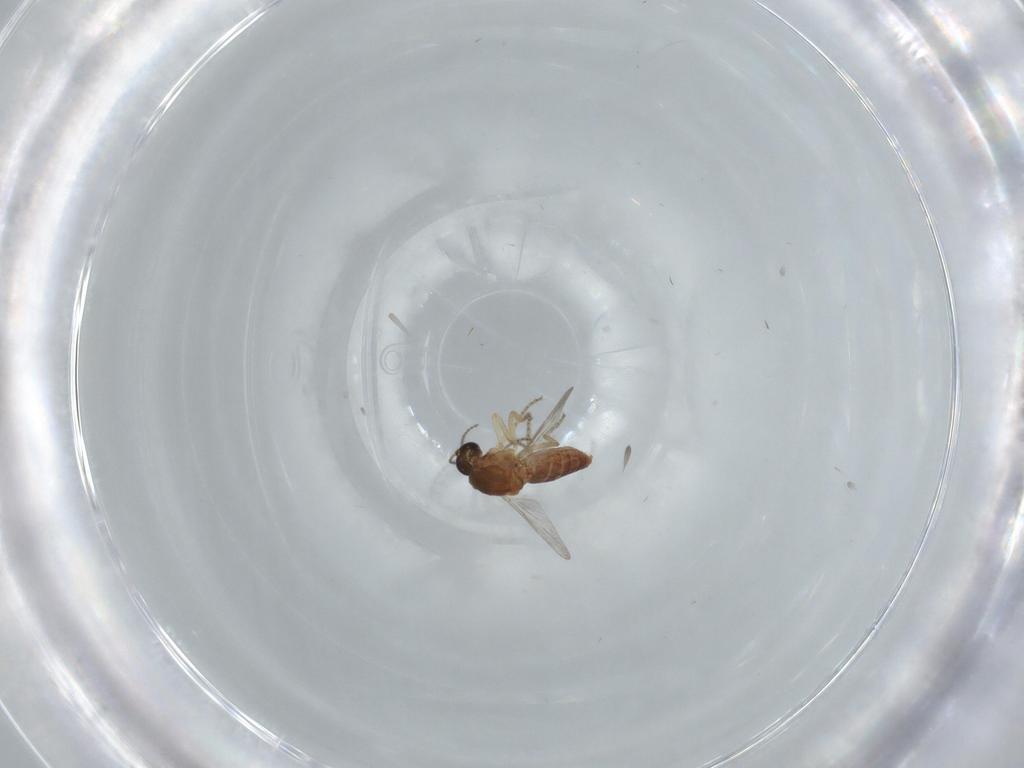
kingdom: Animalia
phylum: Arthropoda
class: Insecta
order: Diptera
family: Ceratopogonidae
